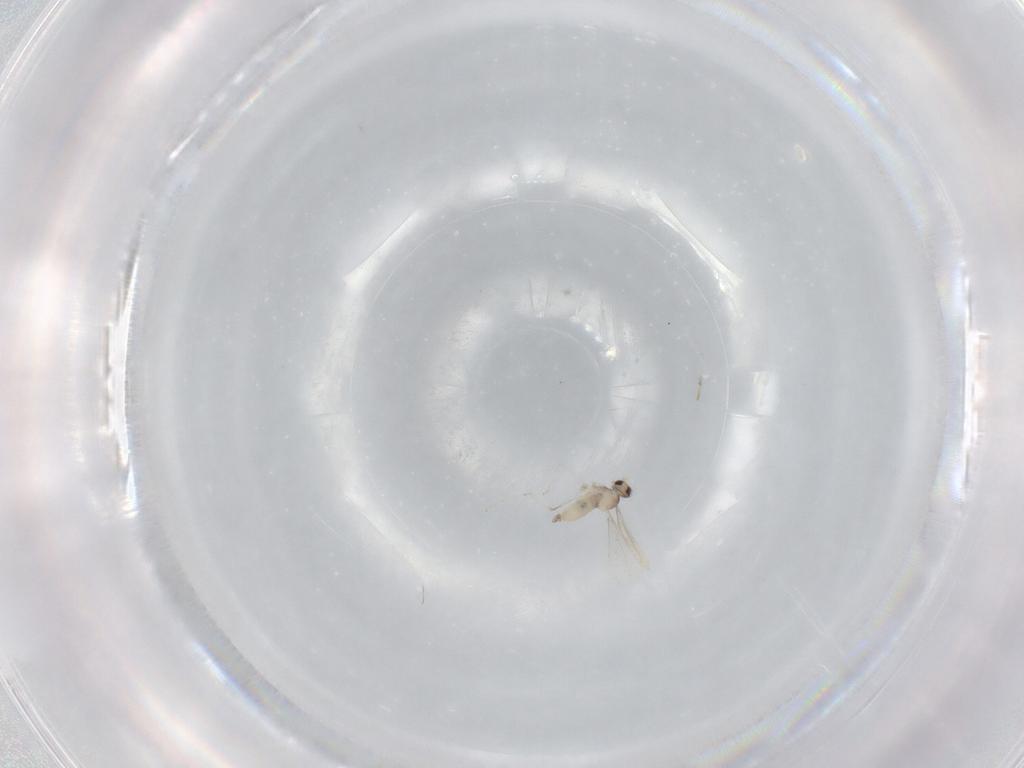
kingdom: Animalia
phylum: Arthropoda
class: Insecta
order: Diptera
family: Cecidomyiidae
